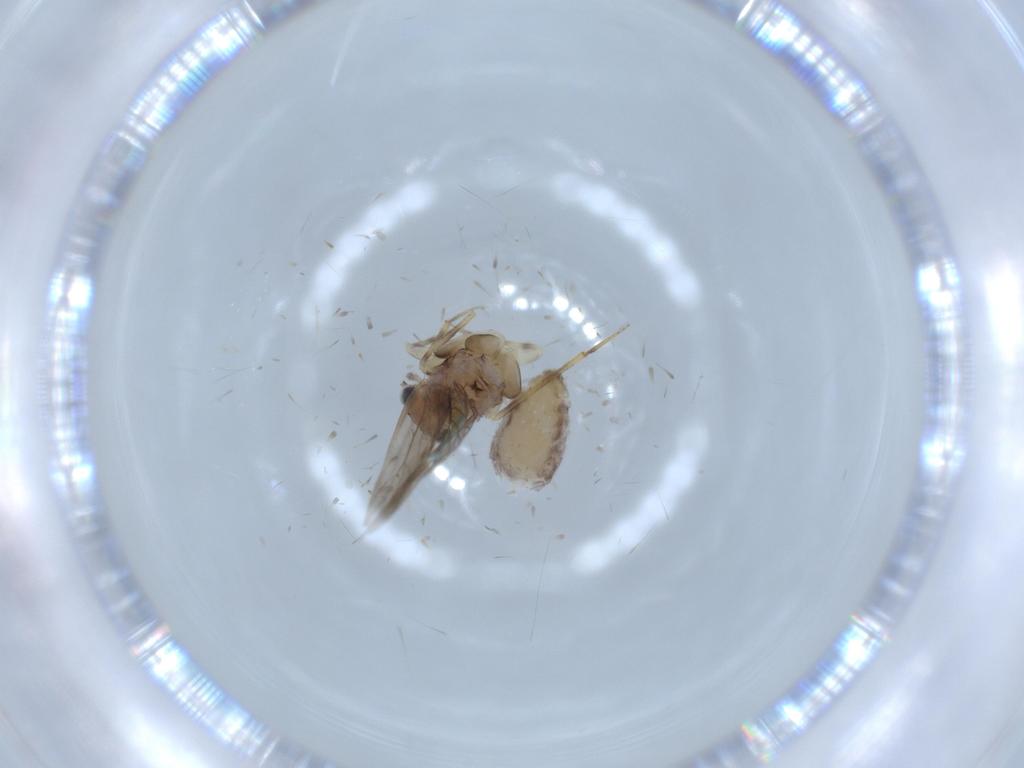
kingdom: Animalia
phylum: Arthropoda
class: Insecta
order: Psocodea
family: Lepidopsocidae
